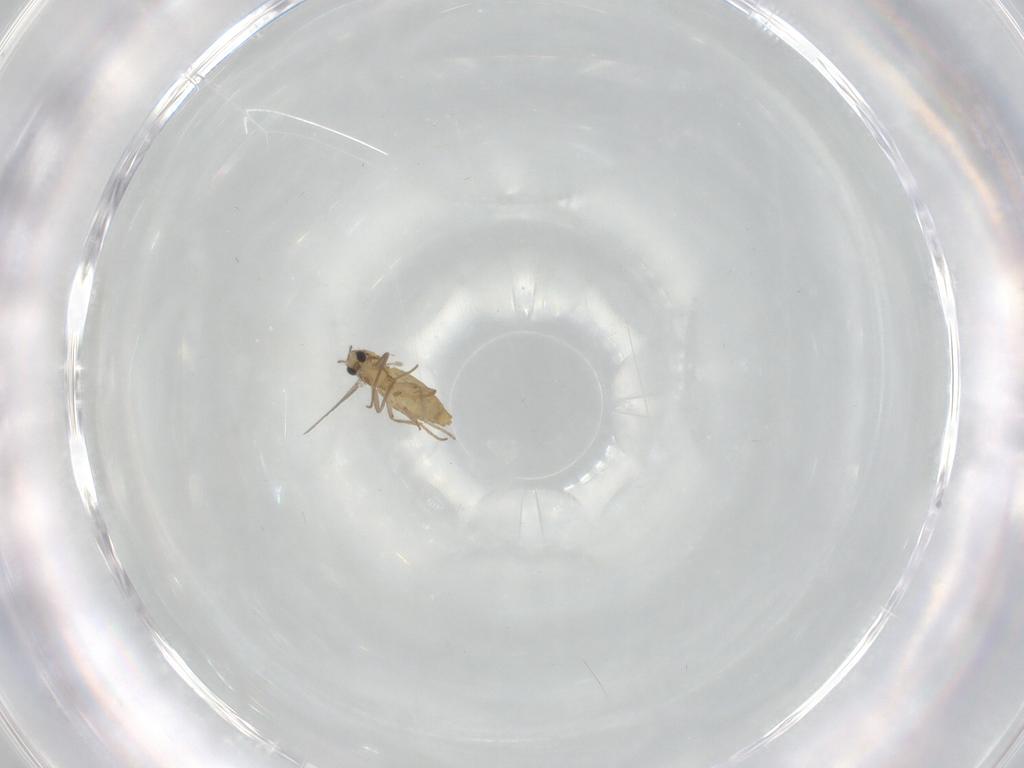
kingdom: Animalia
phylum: Arthropoda
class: Insecta
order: Diptera
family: Chironomidae
